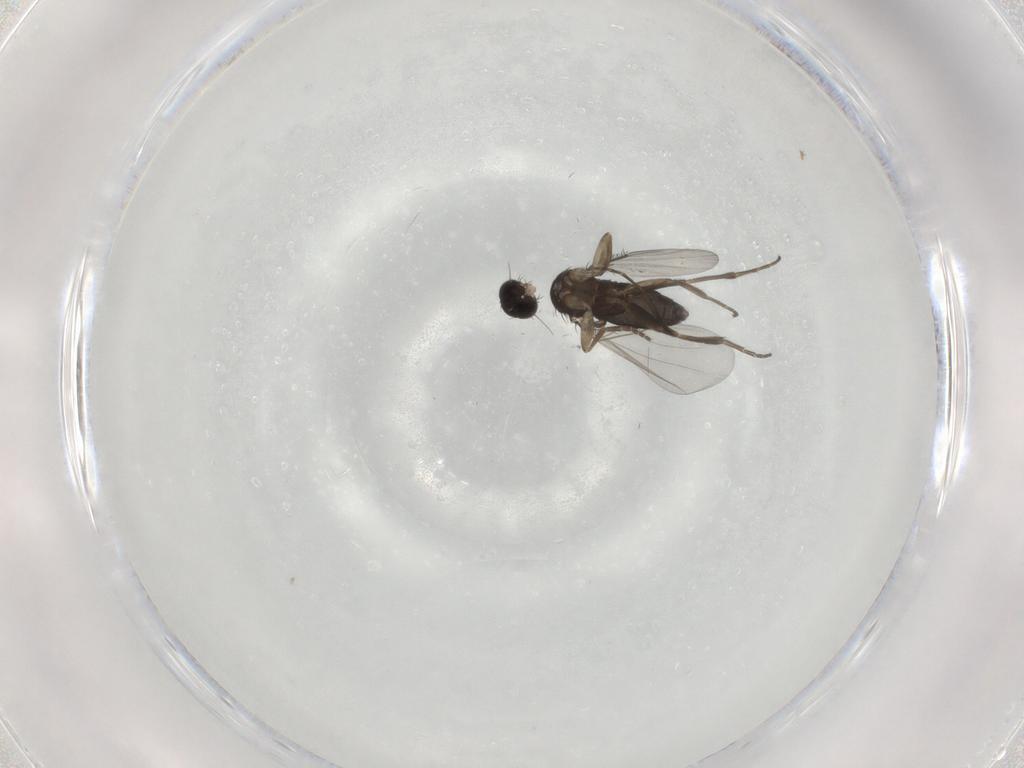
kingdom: Animalia
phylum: Arthropoda
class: Insecta
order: Diptera
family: Phoridae
